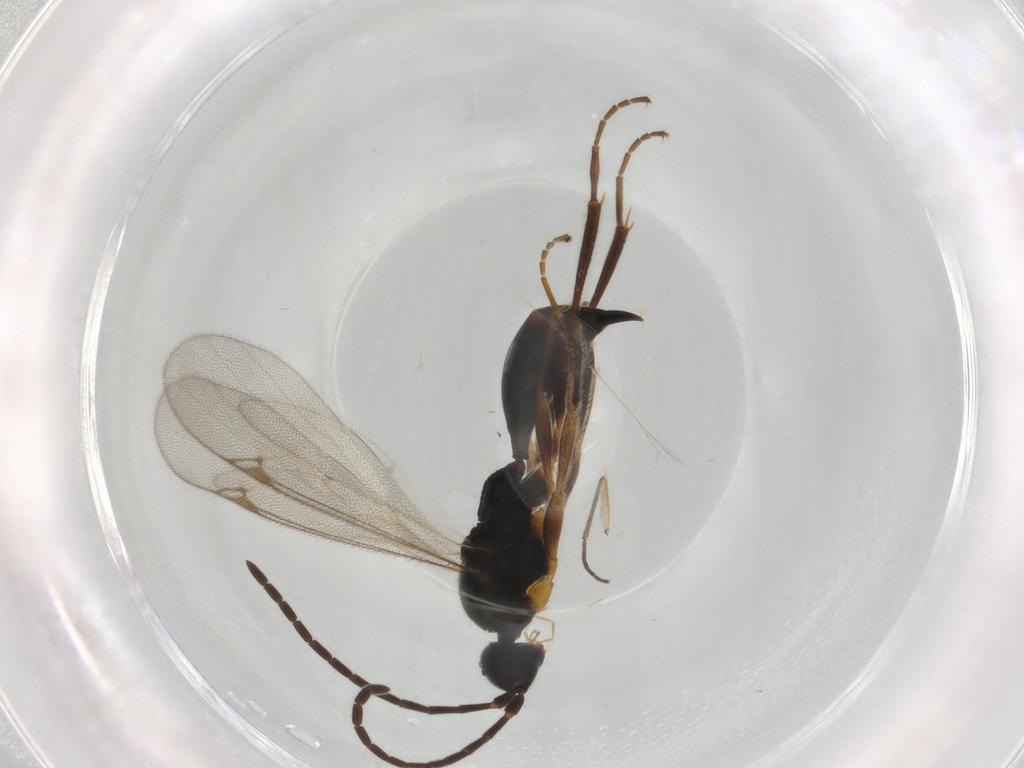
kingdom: Animalia
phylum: Arthropoda
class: Insecta
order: Hymenoptera
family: Proctotrupidae
